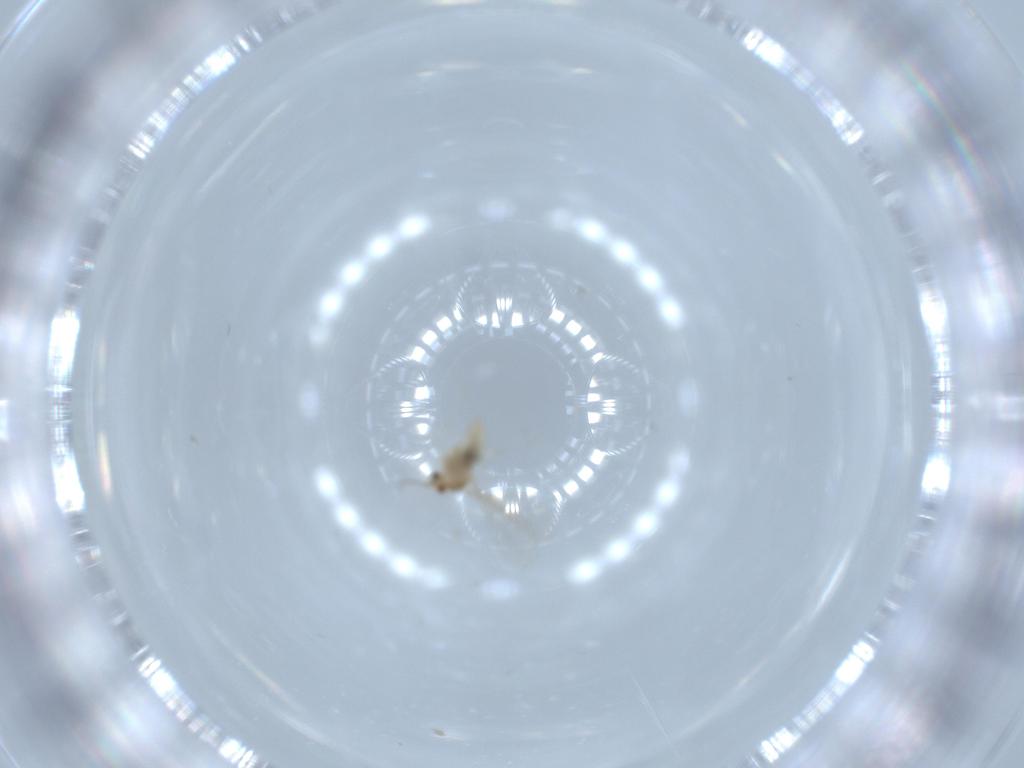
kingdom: Animalia
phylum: Arthropoda
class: Insecta
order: Diptera
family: Cecidomyiidae
